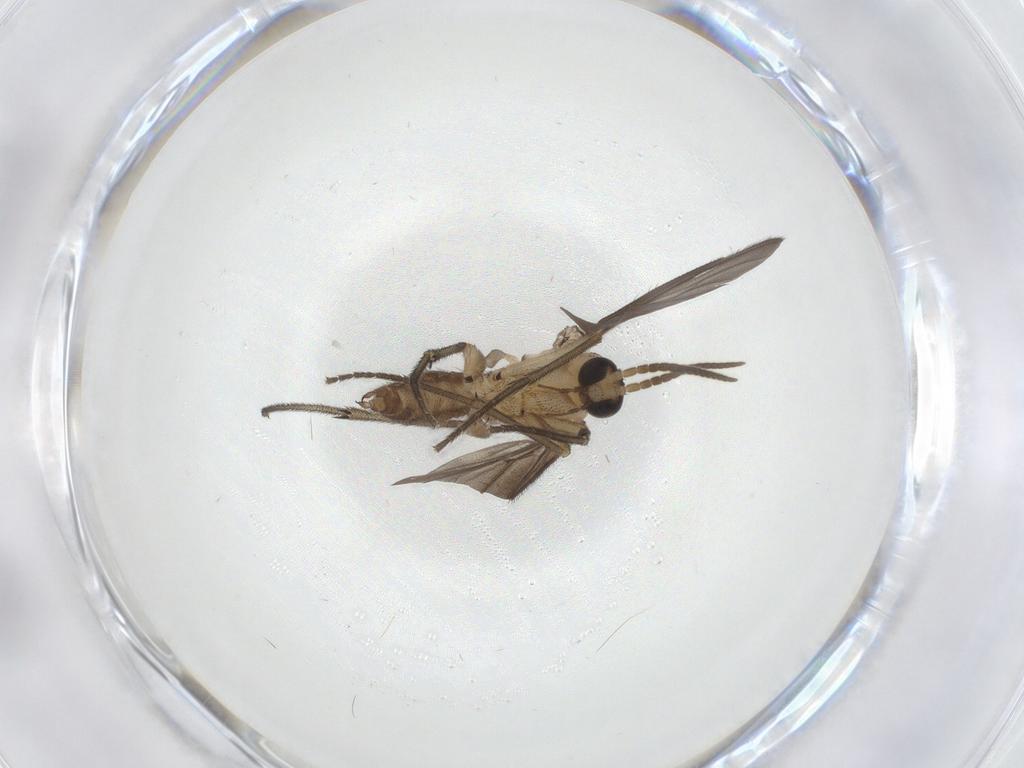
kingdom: Animalia
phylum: Arthropoda
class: Insecta
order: Diptera
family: Diadocidiidae
